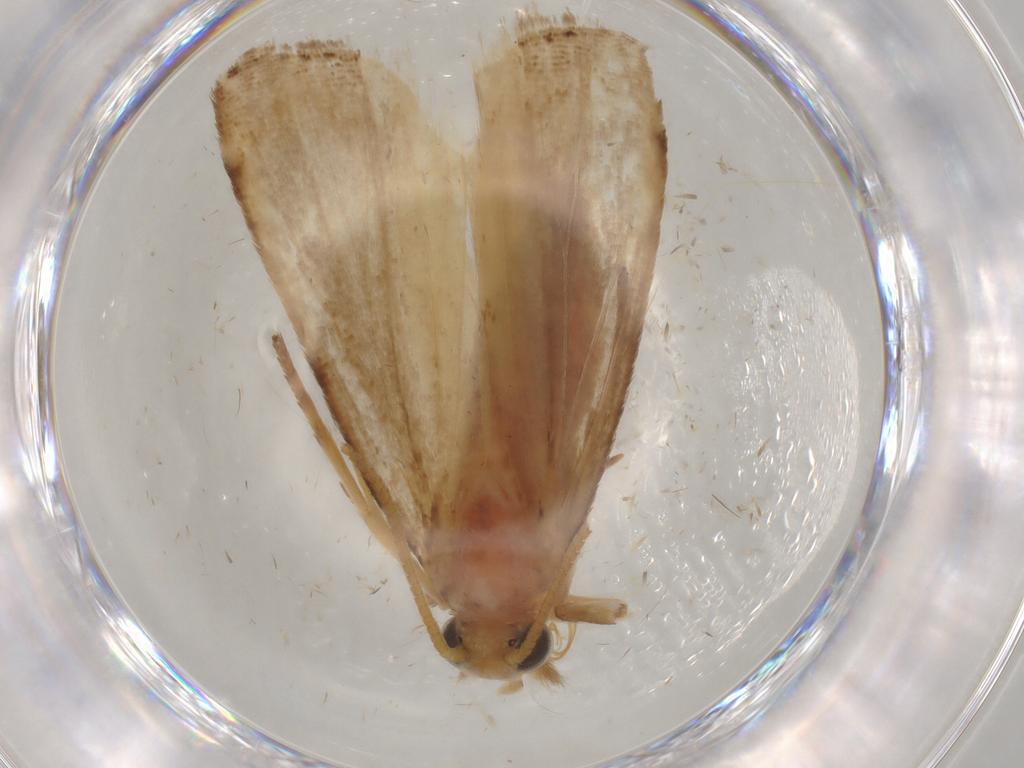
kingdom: Animalia
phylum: Arthropoda
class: Insecta
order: Lepidoptera
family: Pyralidae
